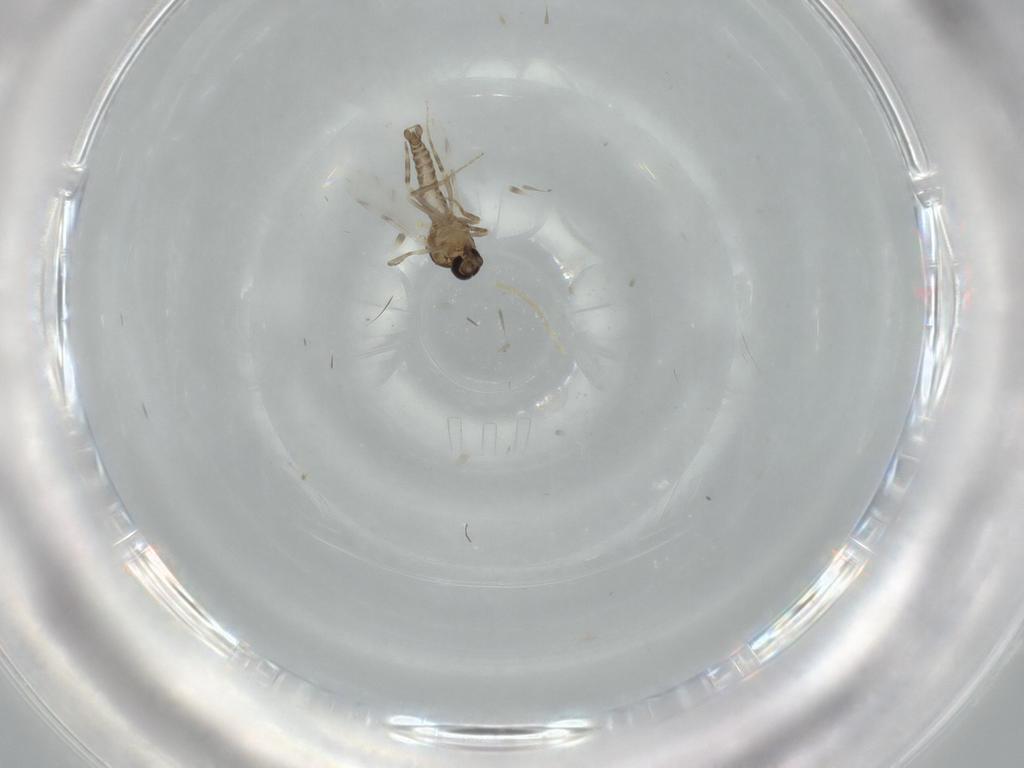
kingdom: Animalia
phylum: Arthropoda
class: Insecta
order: Diptera
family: Ceratopogonidae
